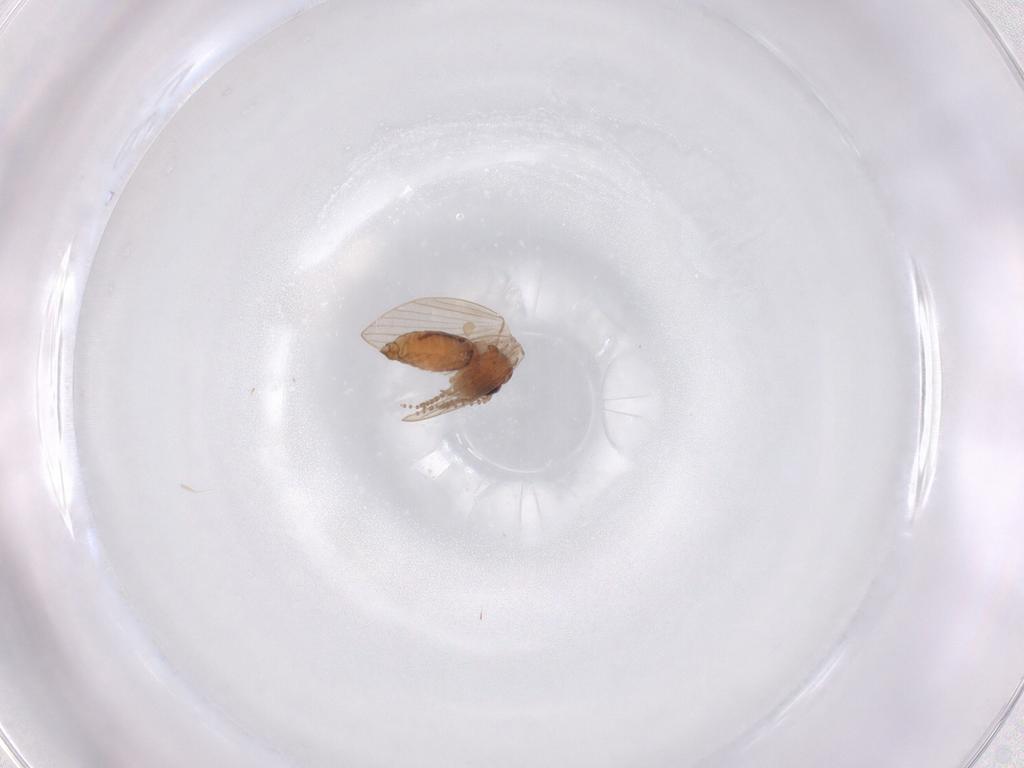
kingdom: Animalia
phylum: Arthropoda
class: Insecta
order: Diptera
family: Psychodidae
